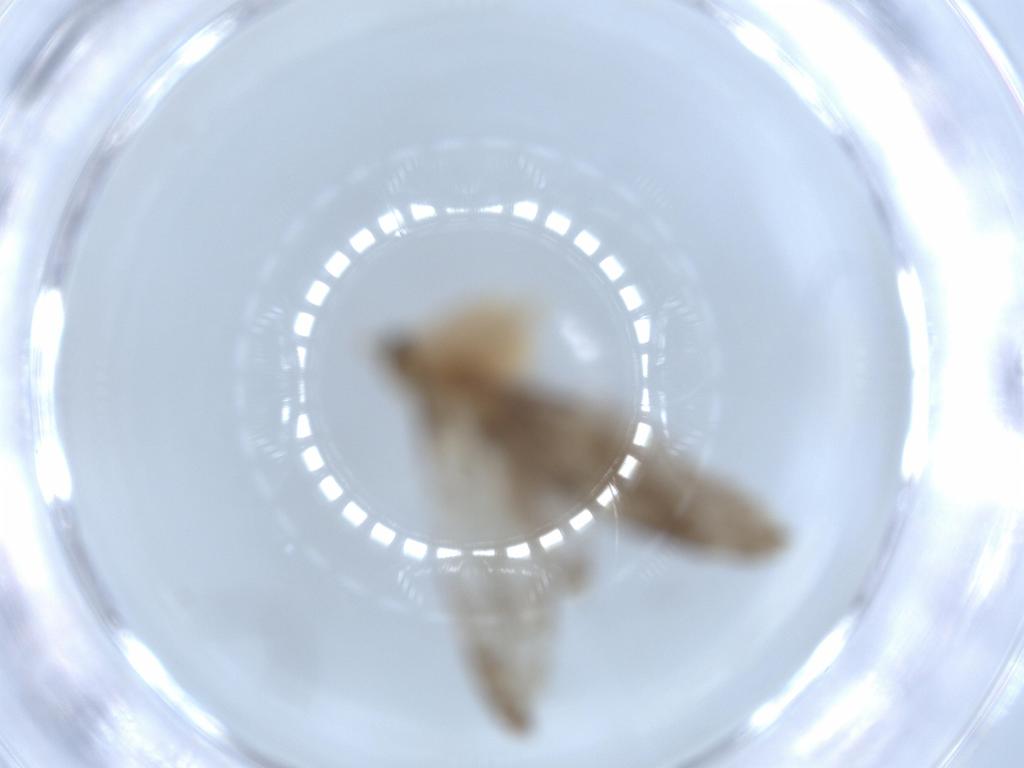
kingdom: Animalia
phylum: Arthropoda
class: Insecta
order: Lepidoptera
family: Tineidae
